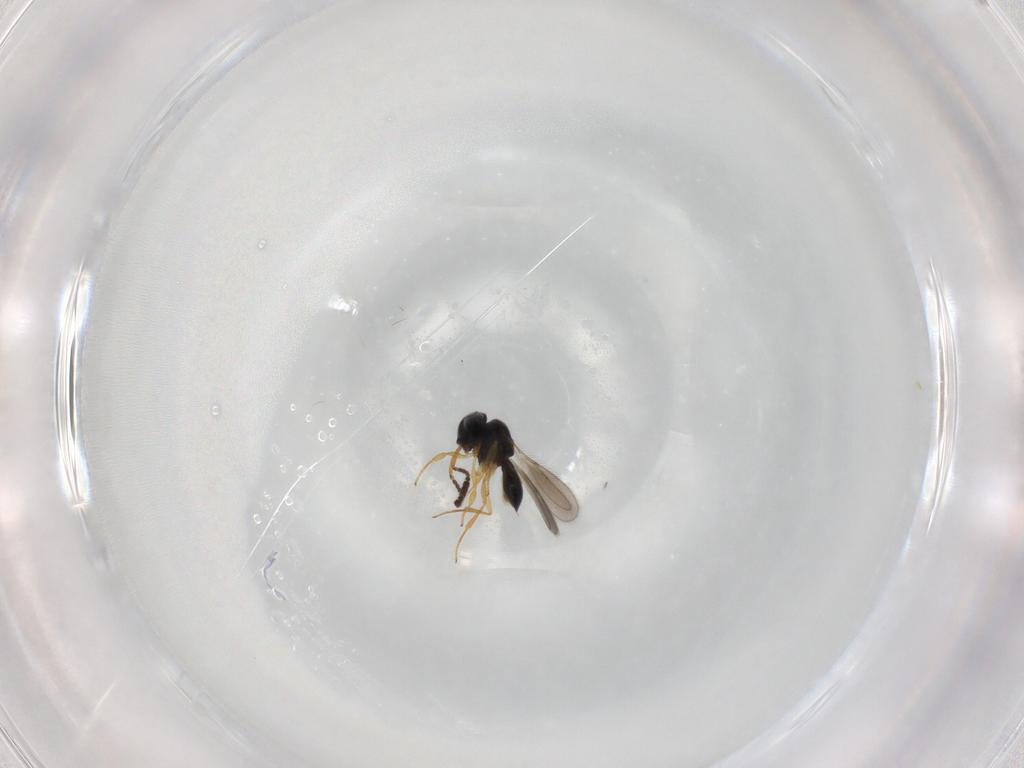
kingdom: Animalia
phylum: Arthropoda
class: Insecta
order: Hymenoptera
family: Scelionidae
